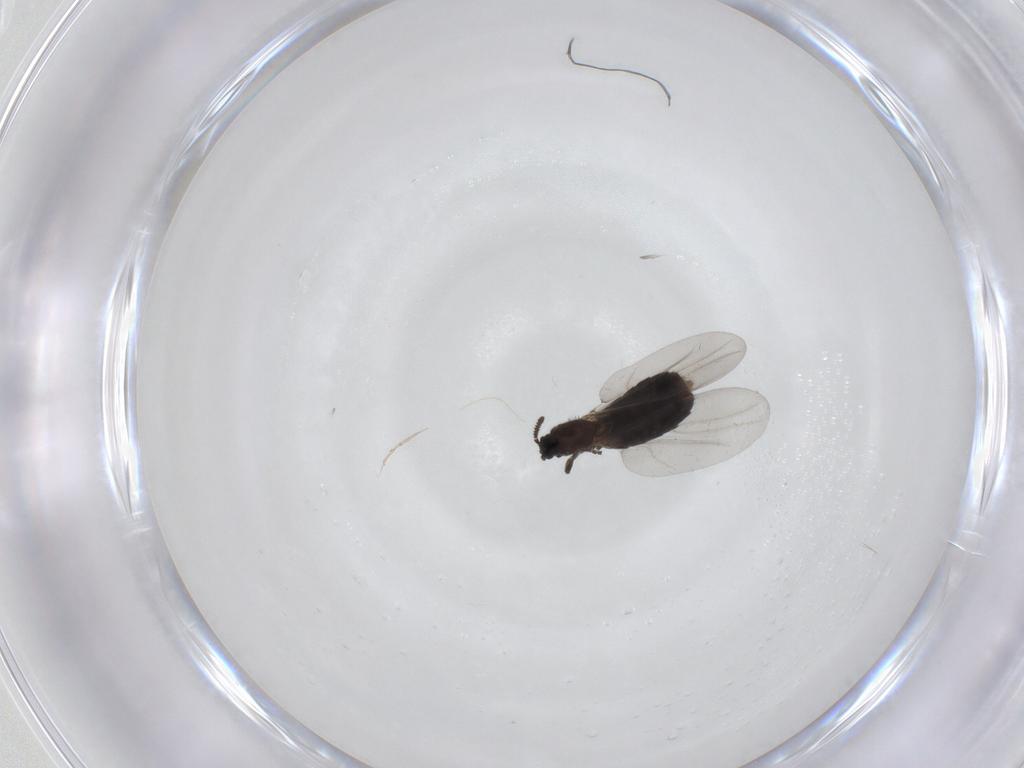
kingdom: Animalia
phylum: Arthropoda
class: Insecta
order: Diptera
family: Scatopsidae
